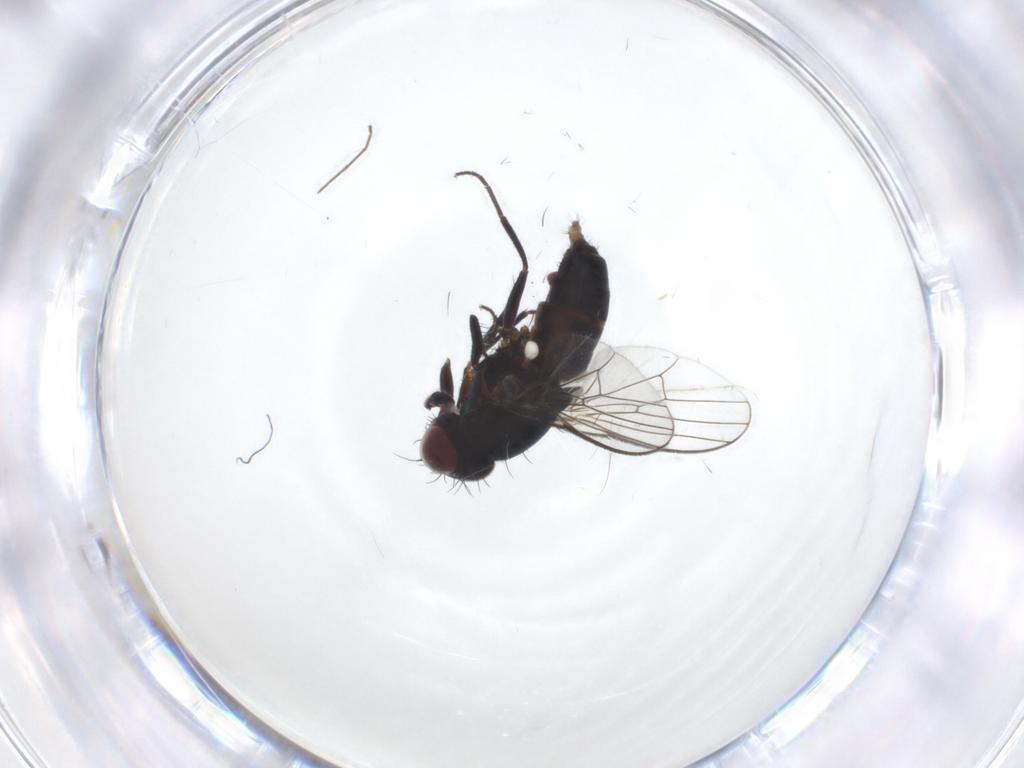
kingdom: Animalia
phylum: Arthropoda
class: Insecta
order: Diptera
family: Carnidae
